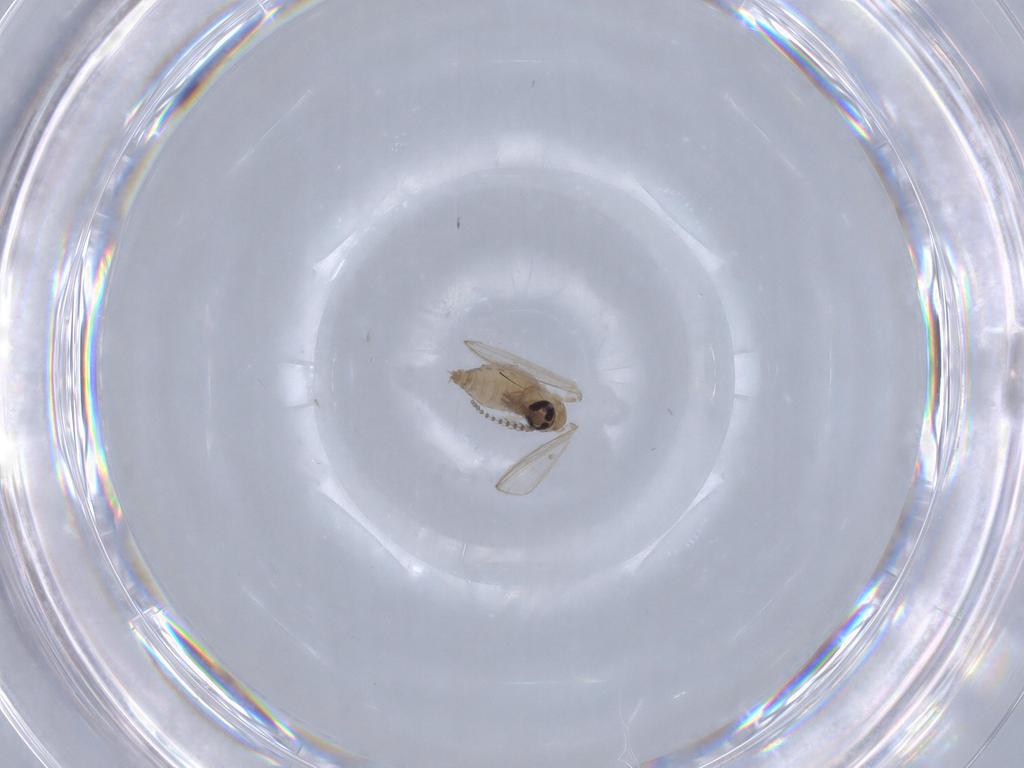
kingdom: Animalia
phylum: Arthropoda
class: Insecta
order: Diptera
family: Psychodidae
